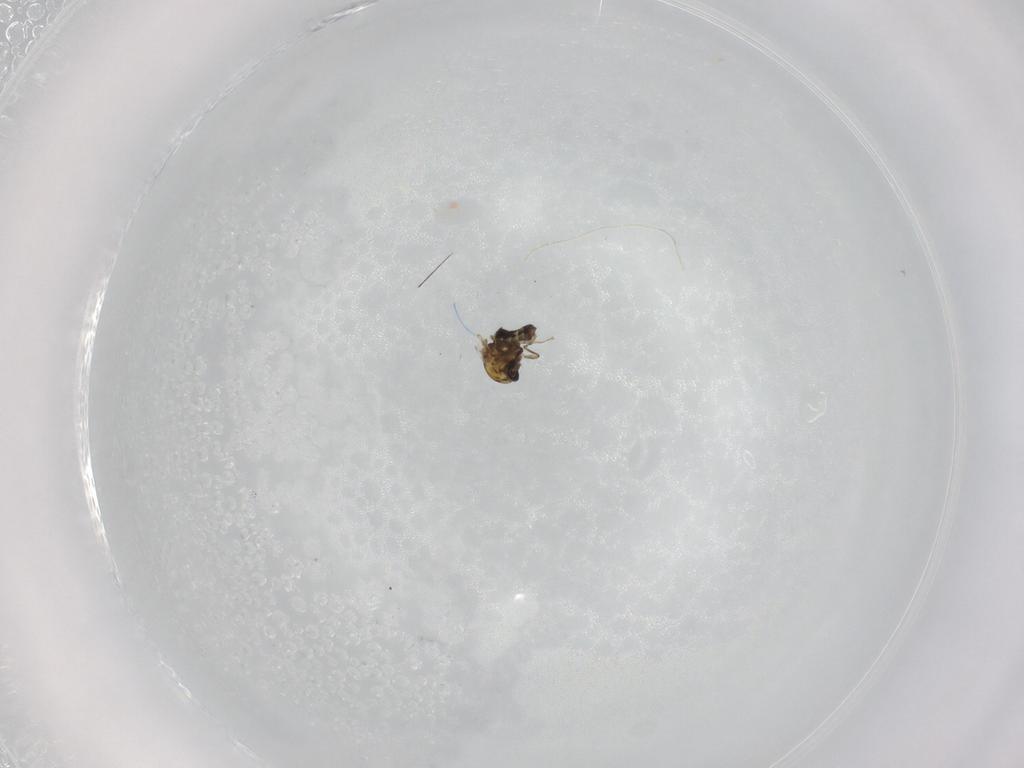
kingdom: Animalia
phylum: Arthropoda
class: Insecta
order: Diptera
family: Ceratopogonidae
